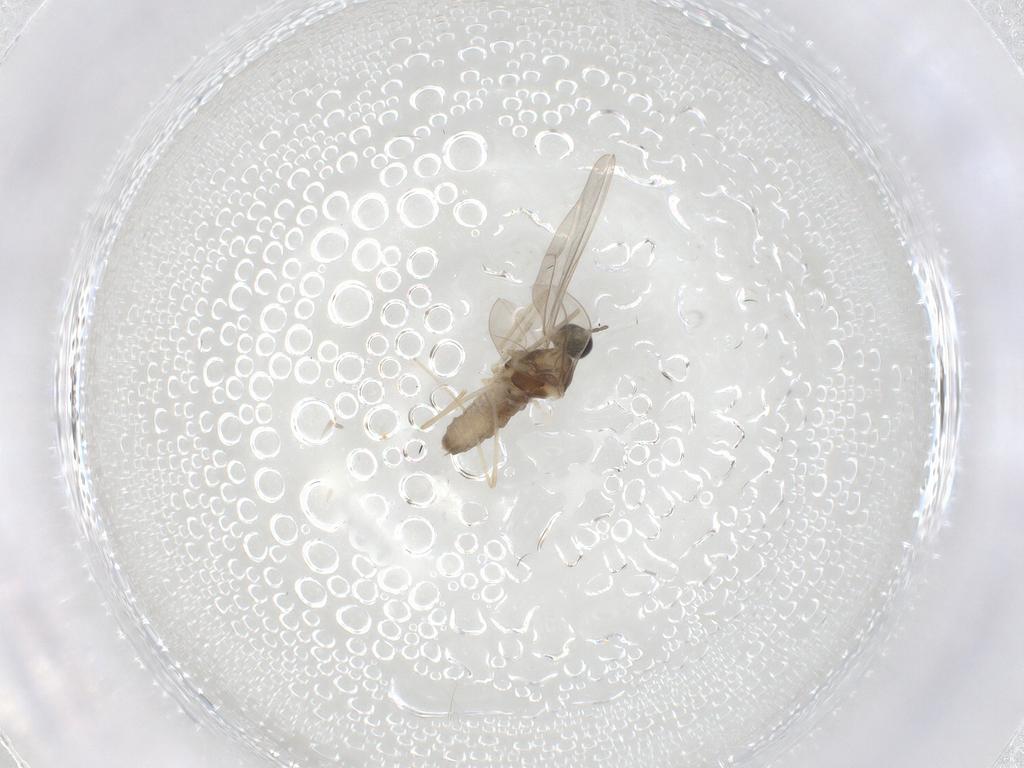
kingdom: Animalia
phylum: Arthropoda
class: Insecta
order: Diptera
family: Cecidomyiidae
